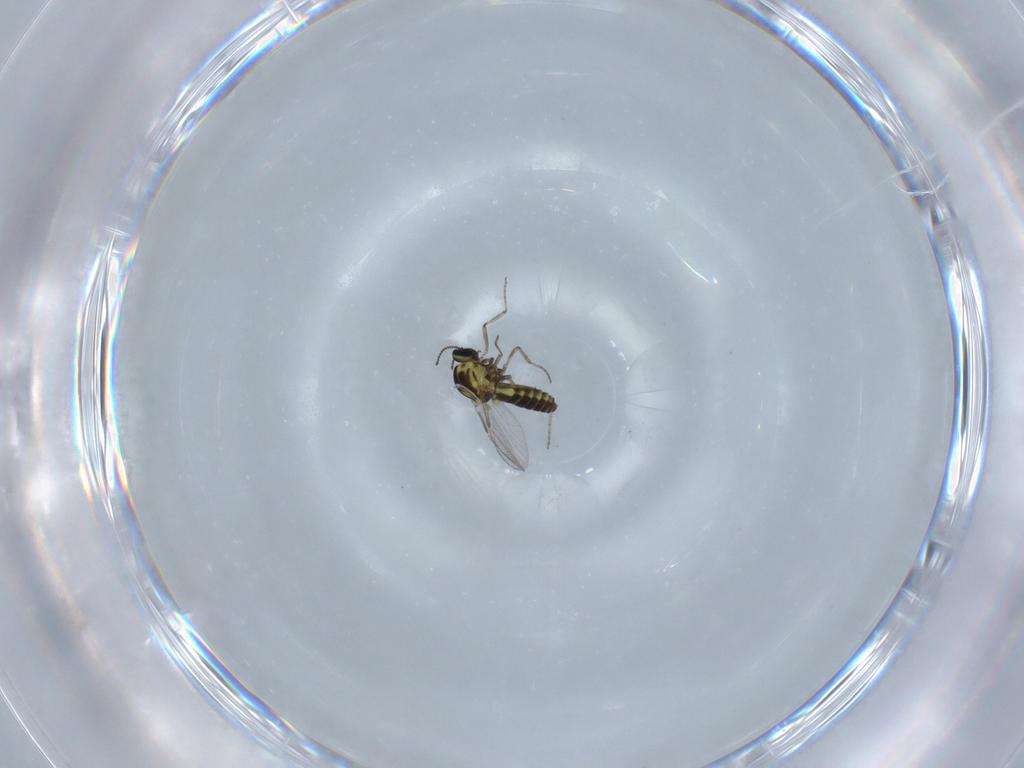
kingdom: Animalia
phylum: Arthropoda
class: Insecta
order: Diptera
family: Ceratopogonidae
